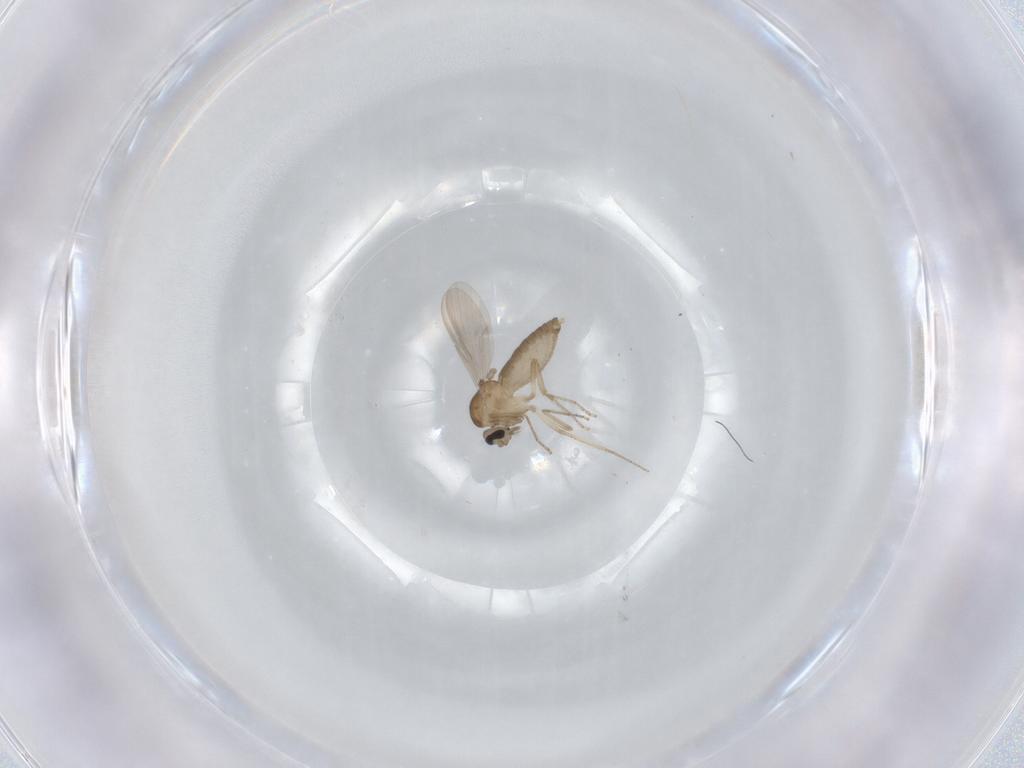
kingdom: Animalia
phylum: Arthropoda
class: Insecta
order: Diptera
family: Ceratopogonidae
